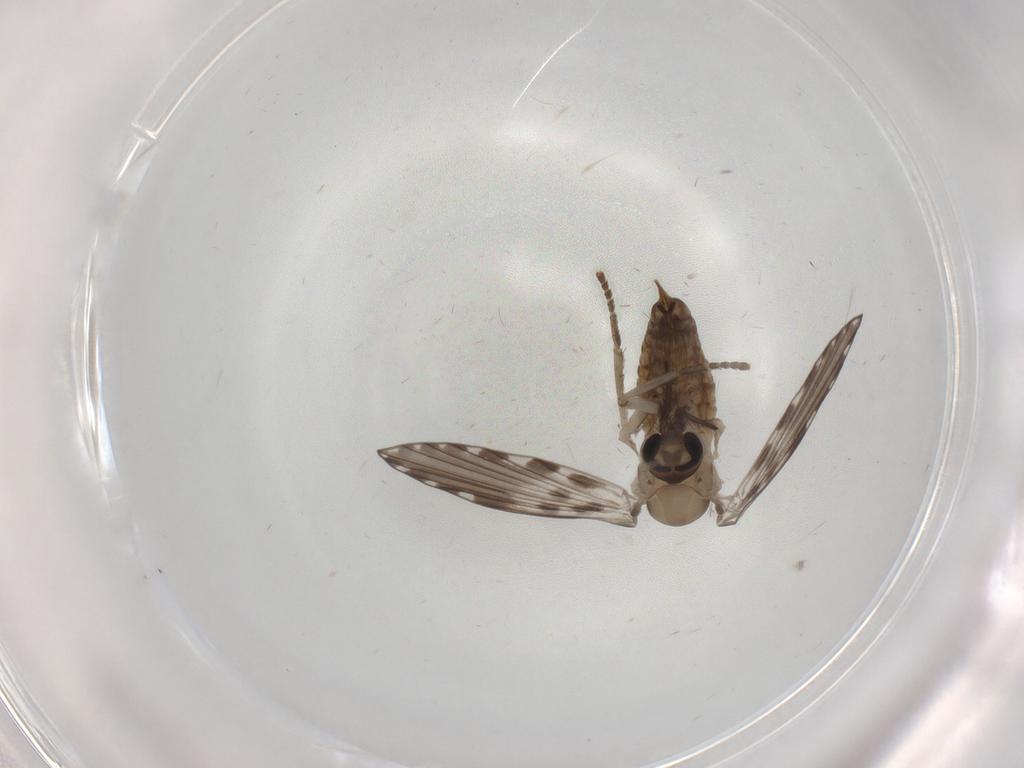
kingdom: Animalia
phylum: Arthropoda
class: Insecta
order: Diptera
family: Psychodidae
